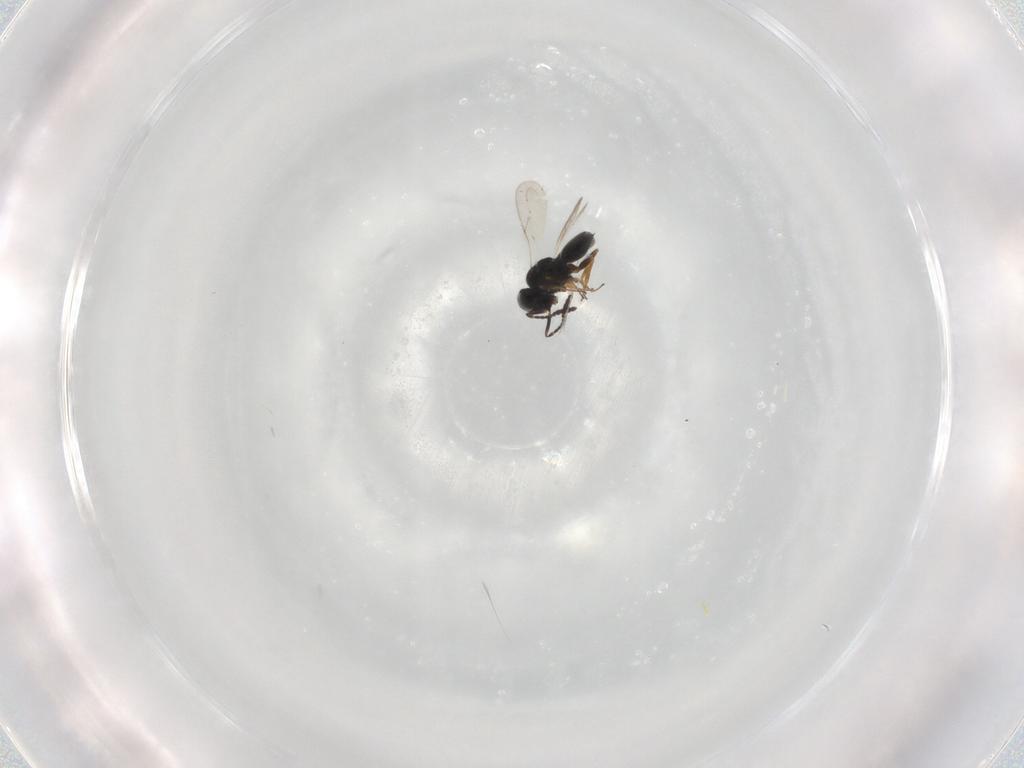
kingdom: Animalia
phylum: Arthropoda
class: Insecta
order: Hymenoptera
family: Scelionidae
